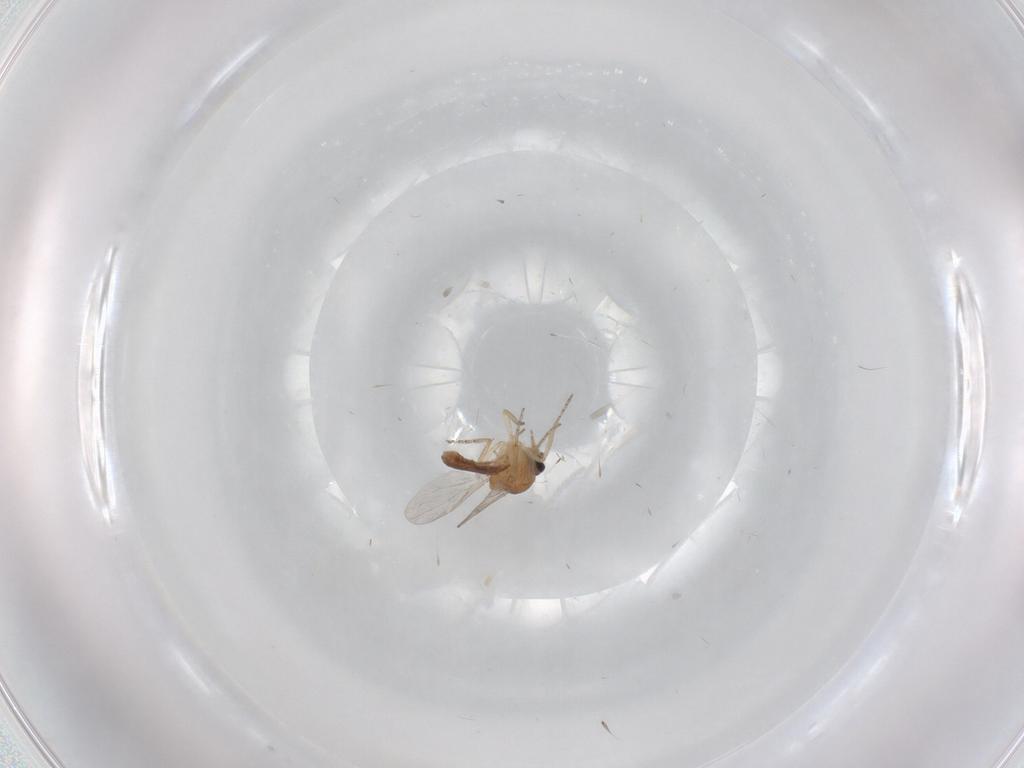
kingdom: Animalia
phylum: Arthropoda
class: Insecta
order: Diptera
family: Ceratopogonidae
